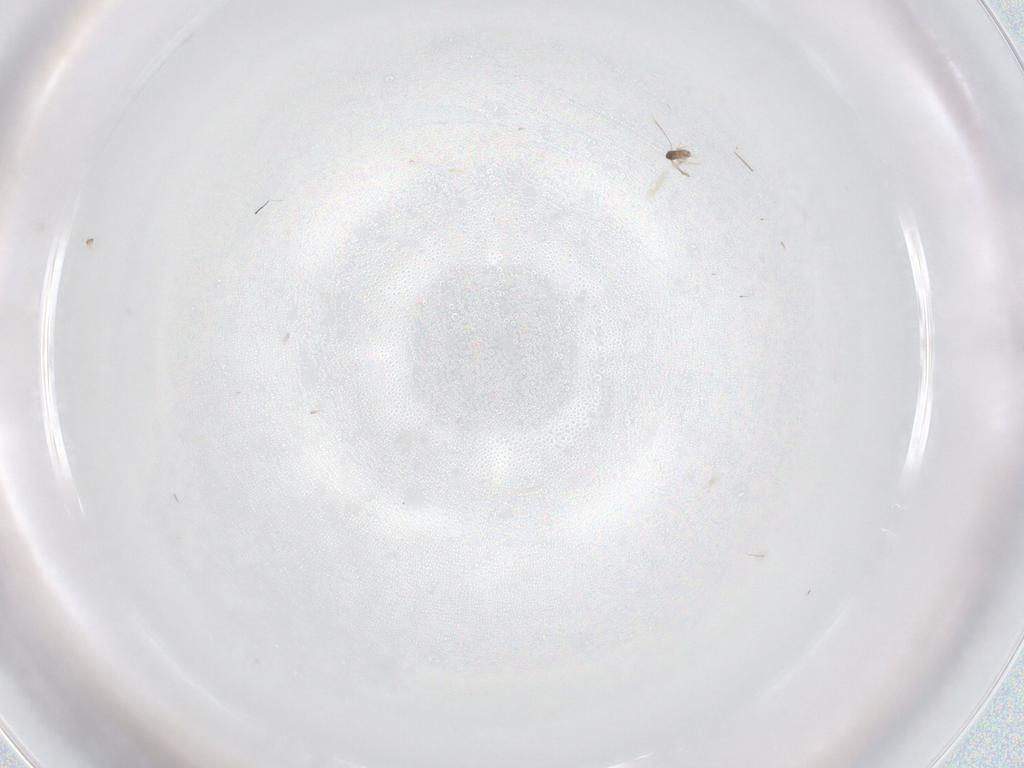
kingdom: Animalia
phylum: Arthropoda
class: Insecta
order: Hymenoptera
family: Mymaridae
